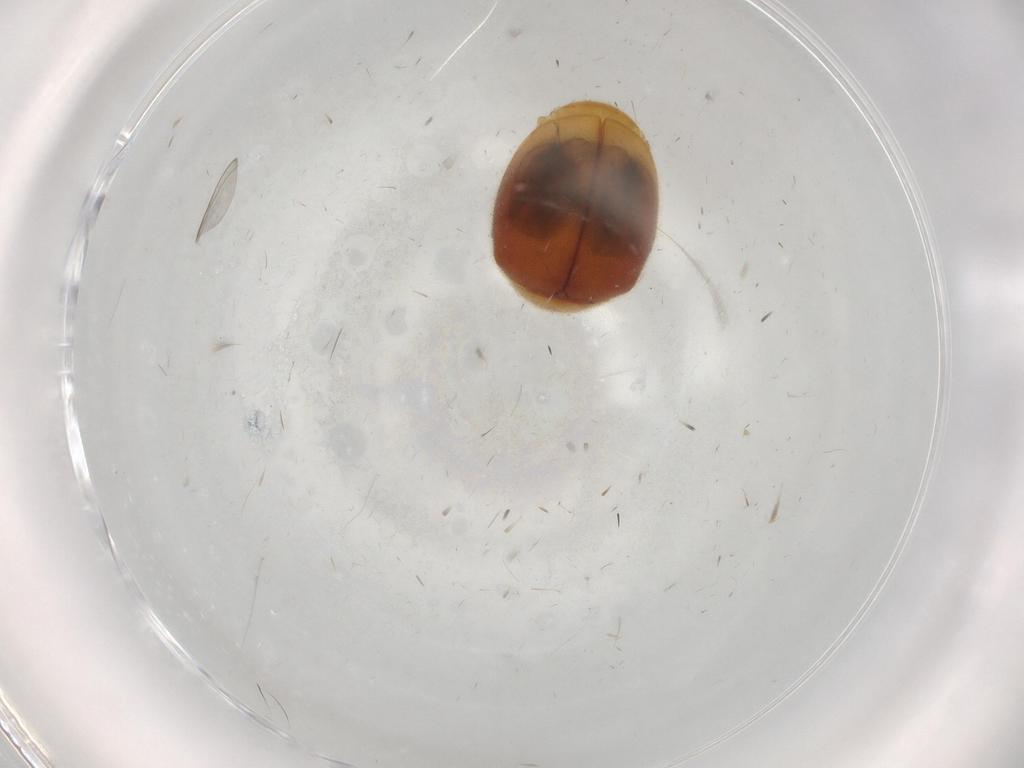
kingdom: Animalia
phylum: Arthropoda
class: Insecta
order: Coleoptera
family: Coccinellidae
